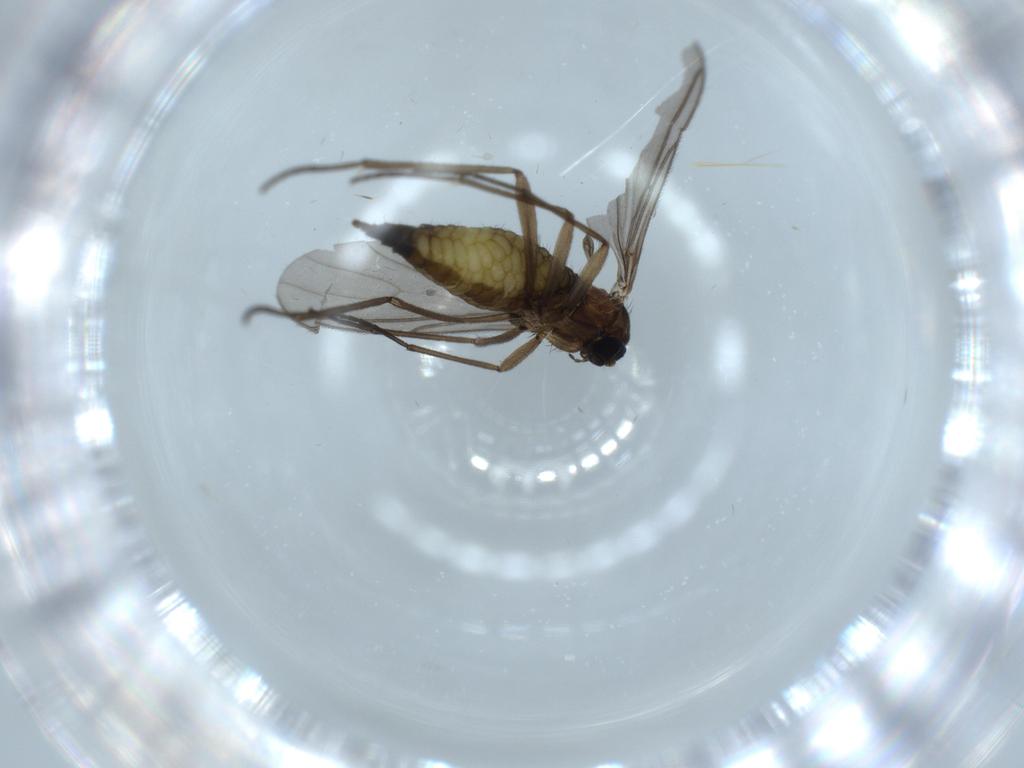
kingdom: Animalia
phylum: Arthropoda
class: Insecta
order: Diptera
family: Sciaridae
